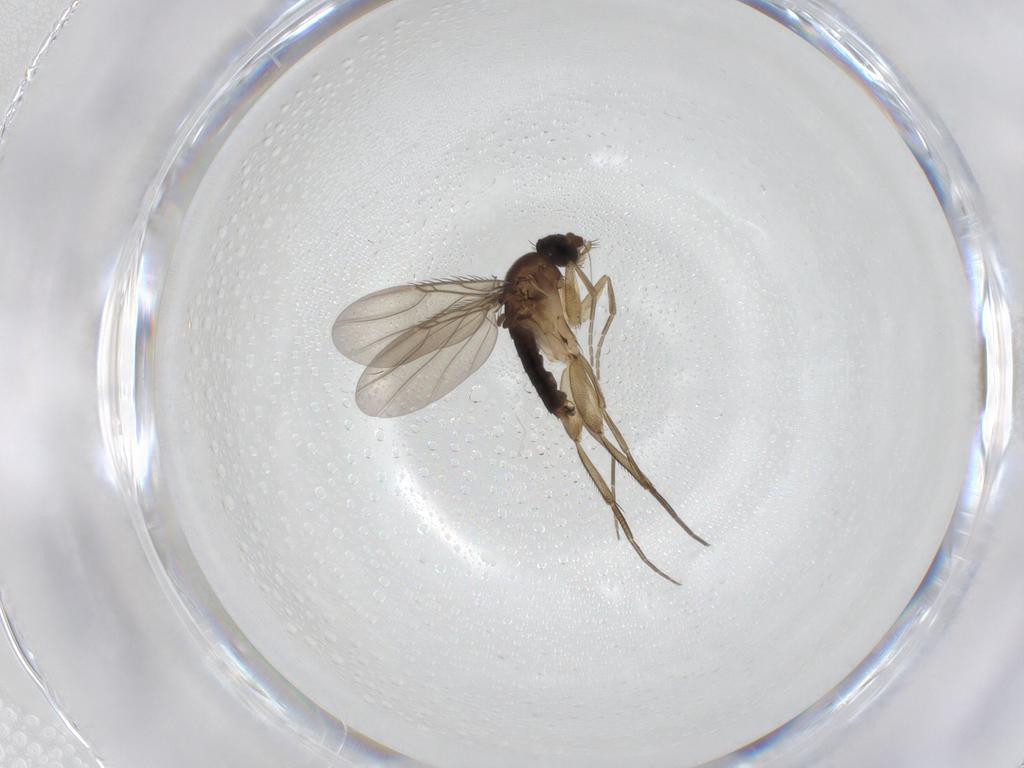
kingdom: Animalia
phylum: Arthropoda
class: Insecta
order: Diptera
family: Phoridae
